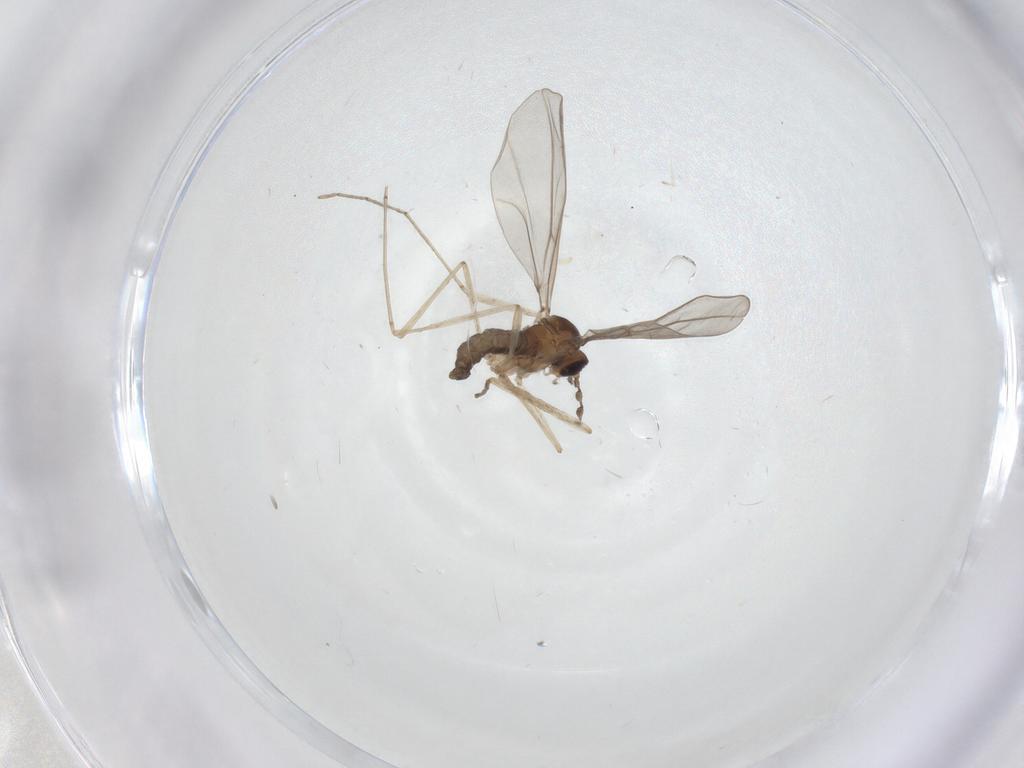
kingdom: Animalia
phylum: Arthropoda
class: Insecta
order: Diptera
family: Cecidomyiidae
